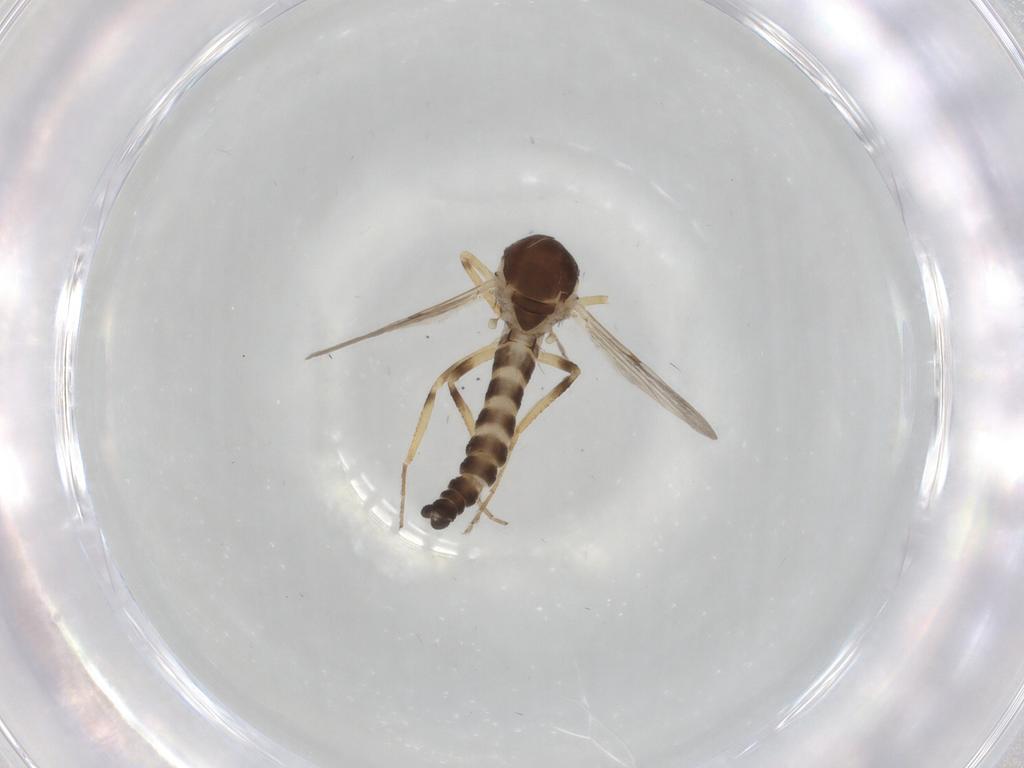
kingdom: Animalia
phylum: Arthropoda
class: Insecta
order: Diptera
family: Ceratopogonidae
